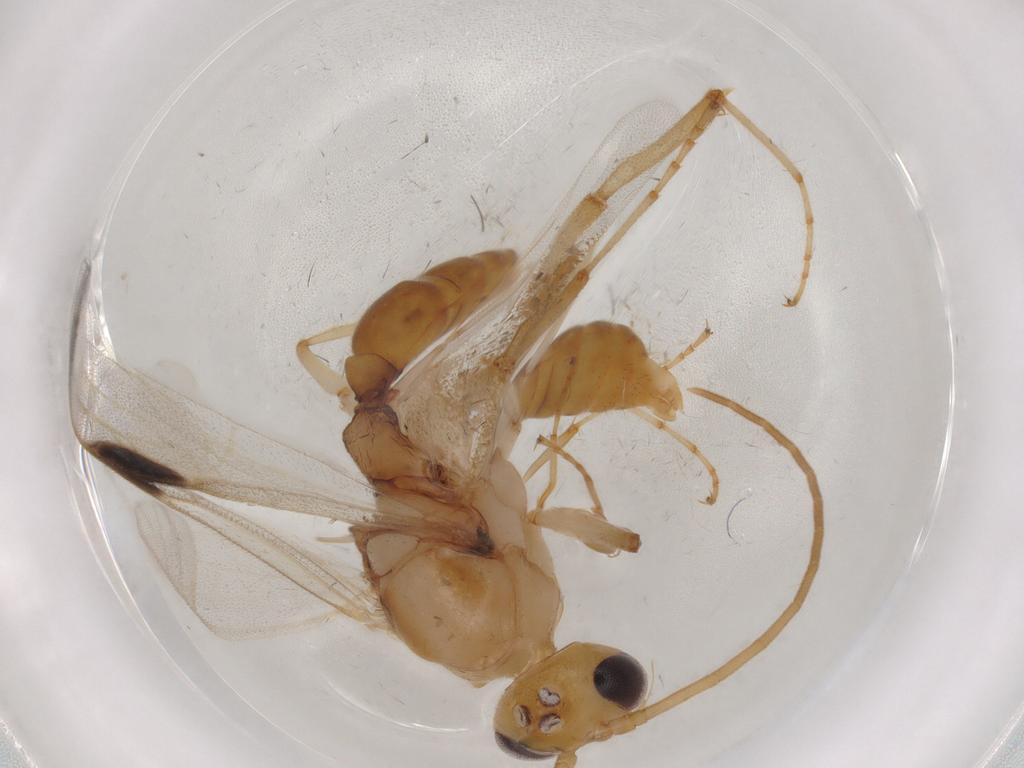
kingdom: Animalia
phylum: Arthropoda
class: Insecta
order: Hymenoptera
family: Formicidae
